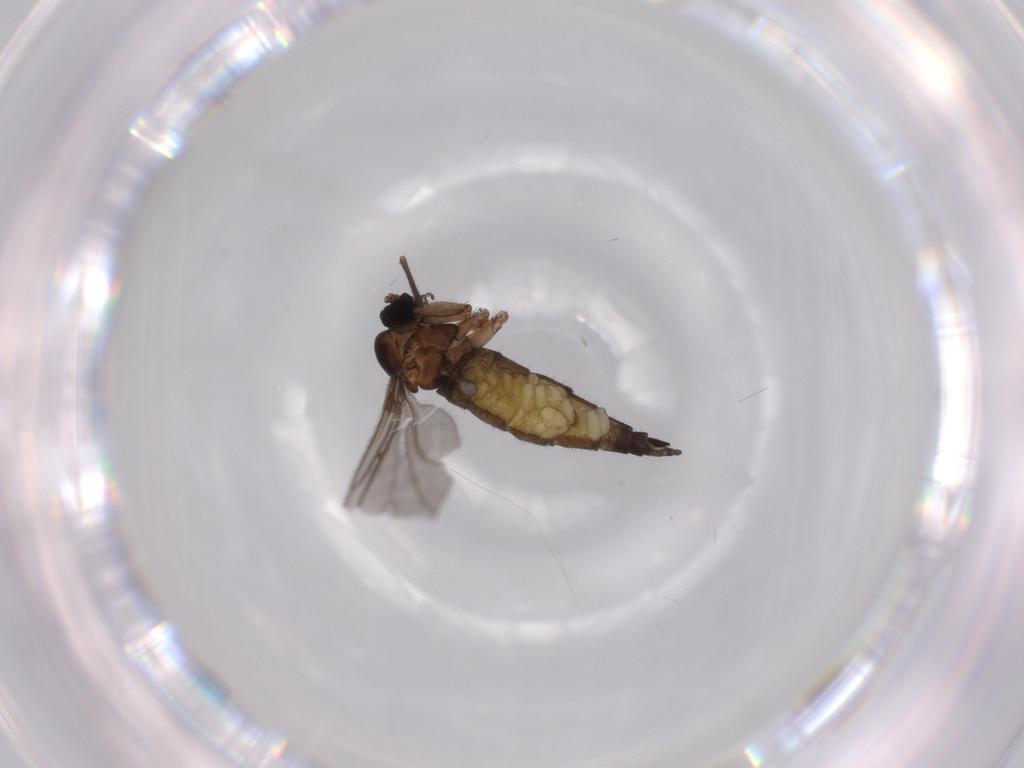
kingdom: Animalia
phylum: Arthropoda
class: Insecta
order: Diptera
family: Sciaridae
